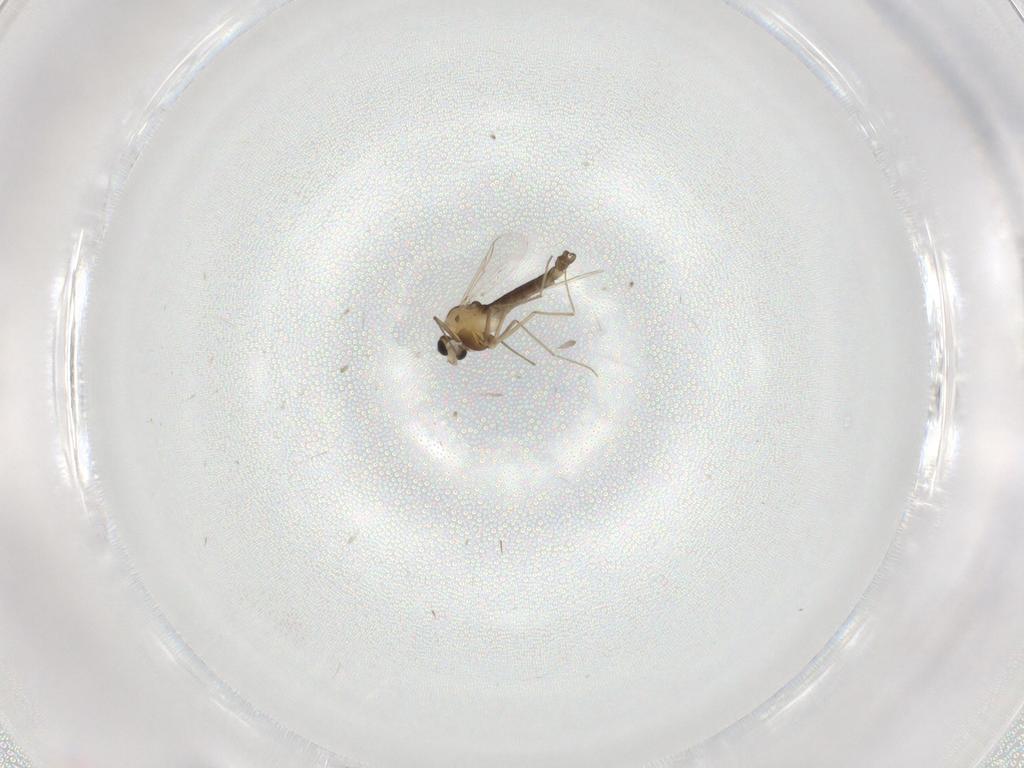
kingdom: Animalia
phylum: Arthropoda
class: Insecta
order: Diptera
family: Chironomidae
